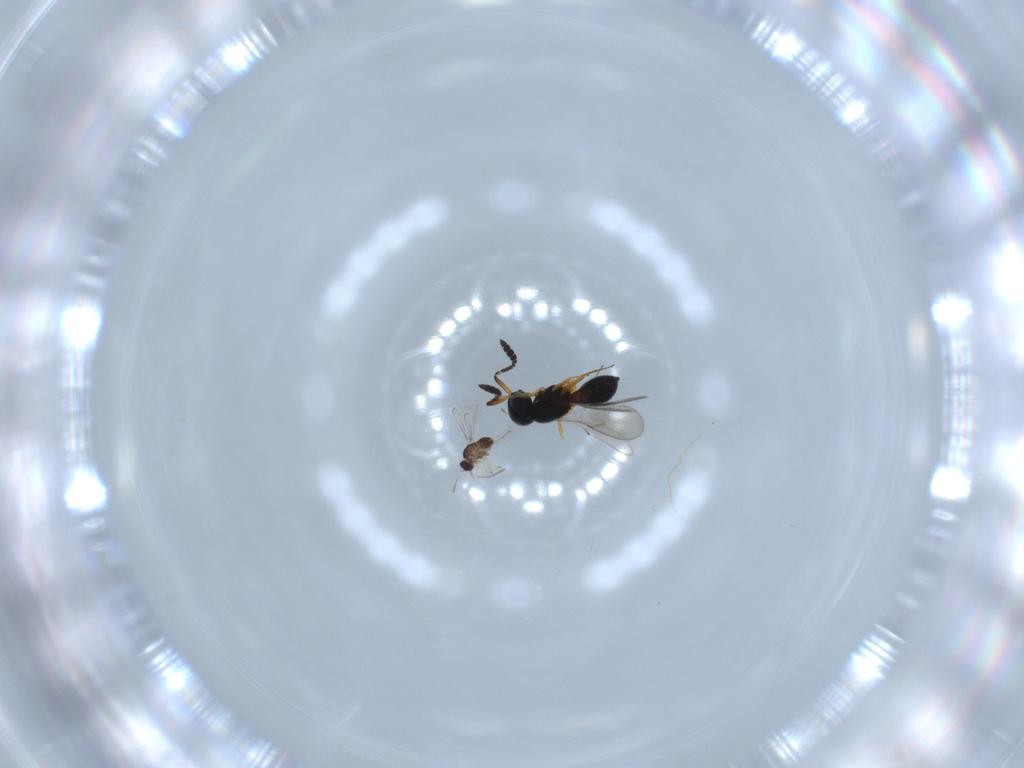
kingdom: Animalia
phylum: Arthropoda
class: Insecta
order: Hymenoptera
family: Scelionidae
